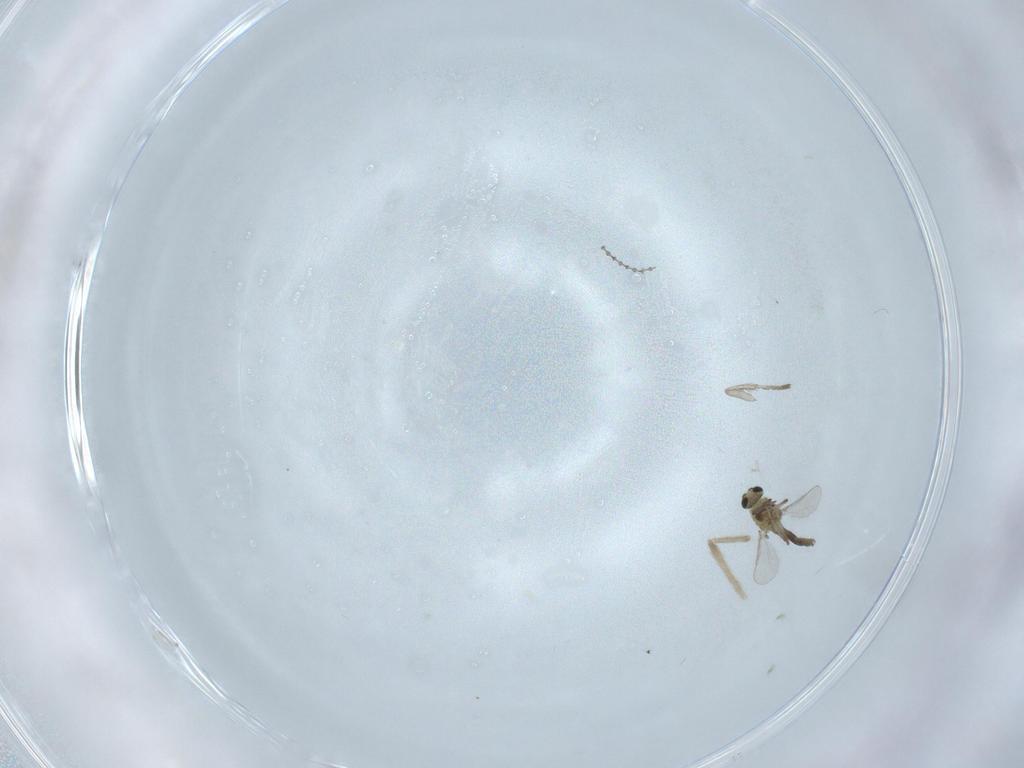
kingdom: Animalia
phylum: Arthropoda
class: Insecta
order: Diptera
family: Chironomidae
